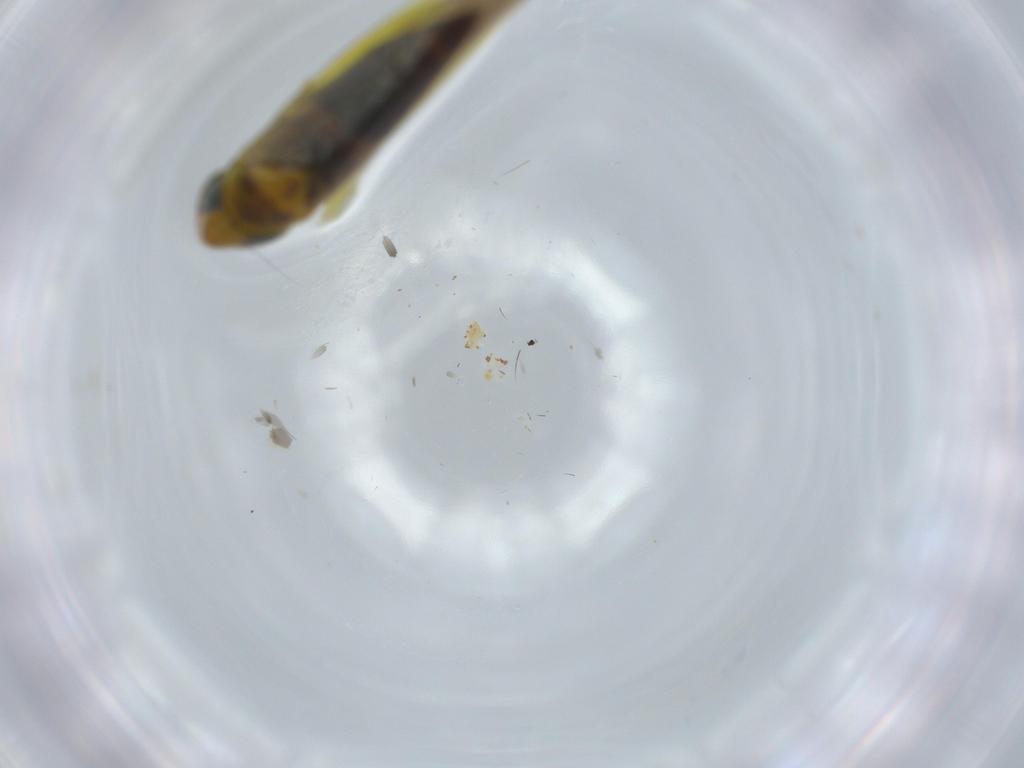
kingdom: Animalia
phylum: Arthropoda
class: Insecta
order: Hemiptera
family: Cicadellidae
